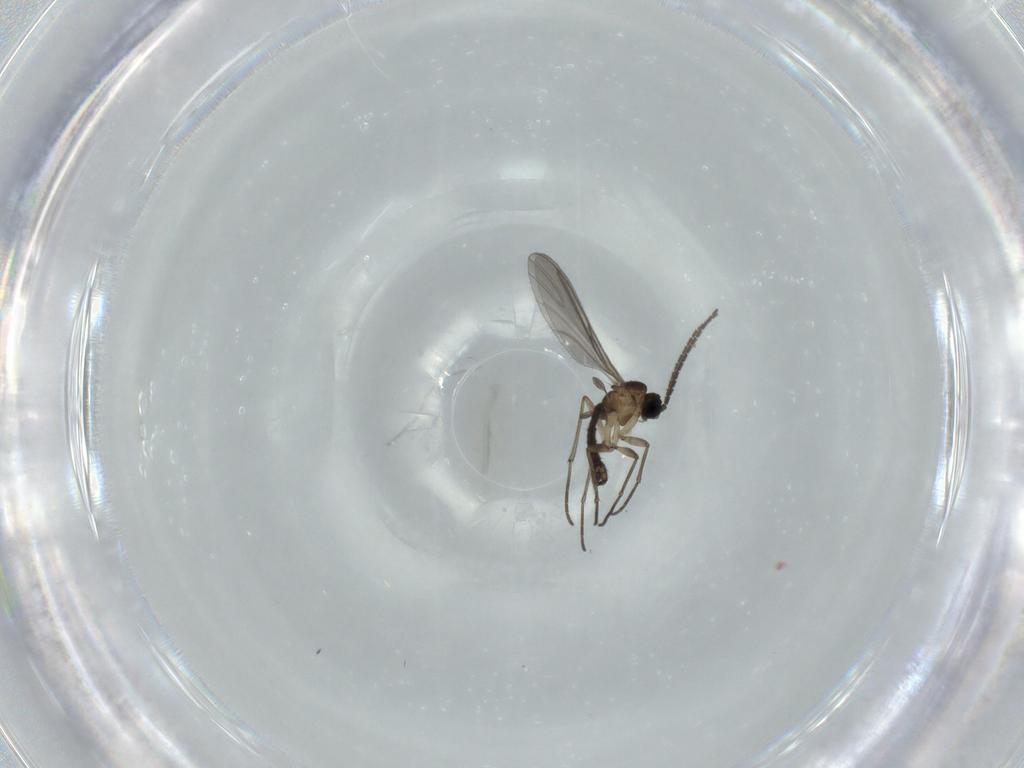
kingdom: Animalia
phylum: Arthropoda
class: Insecta
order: Diptera
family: Sciaridae
